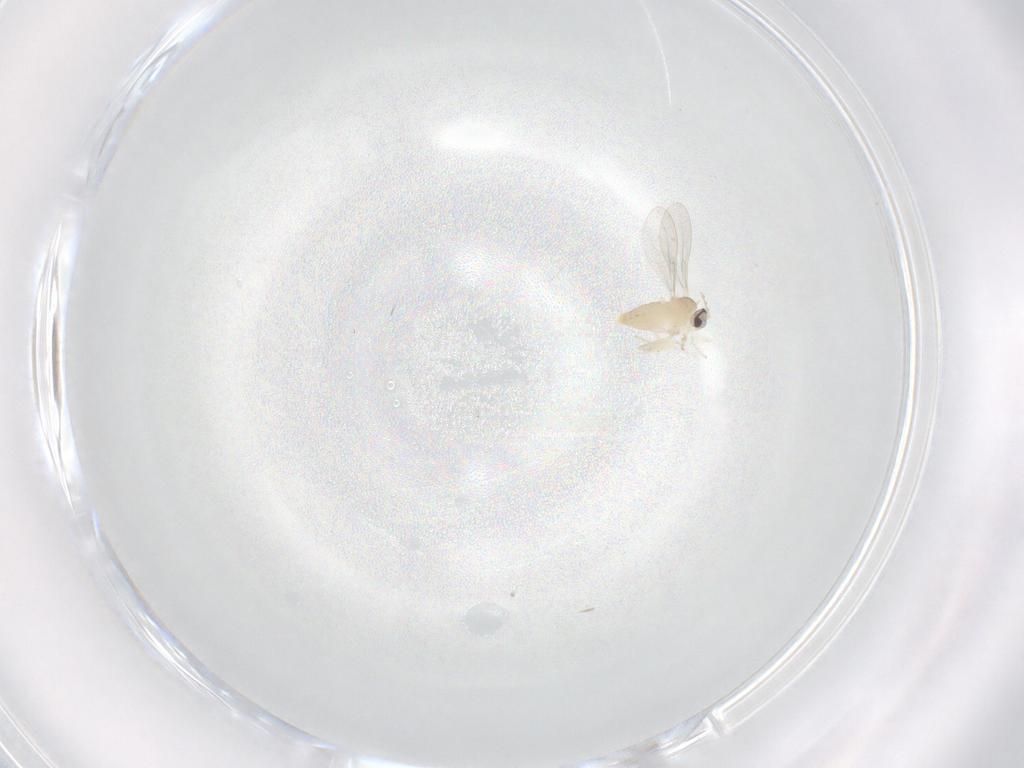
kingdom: Animalia
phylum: Arthropoda
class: Insecta
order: Diptera
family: Cecidomyiidae
